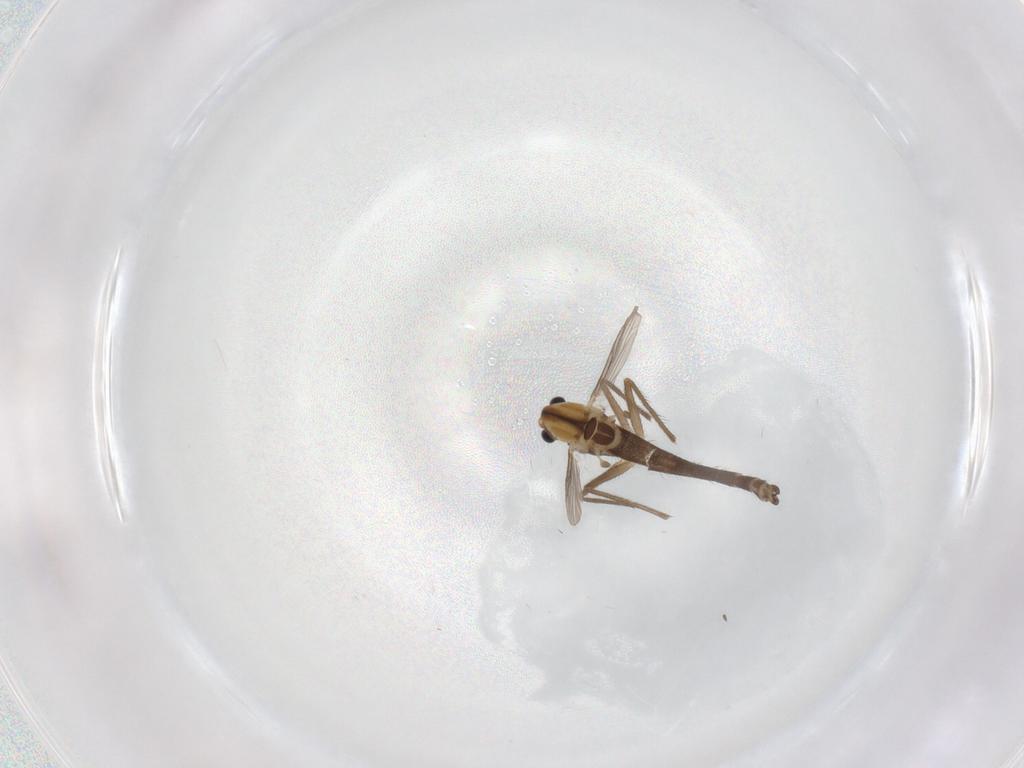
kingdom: Animalia
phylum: Arthropoda
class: Insecta
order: Diptera
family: Chironomidae
